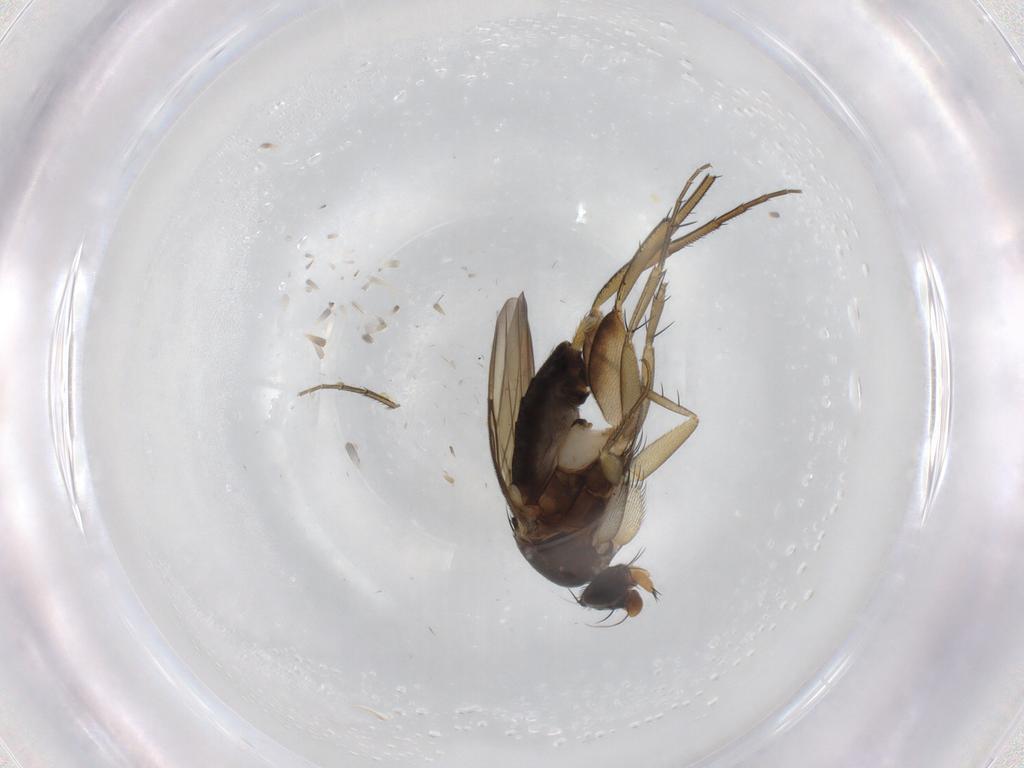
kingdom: Animalia
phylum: Arthropoda
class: Insecta
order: Diptera
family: Phoridae
